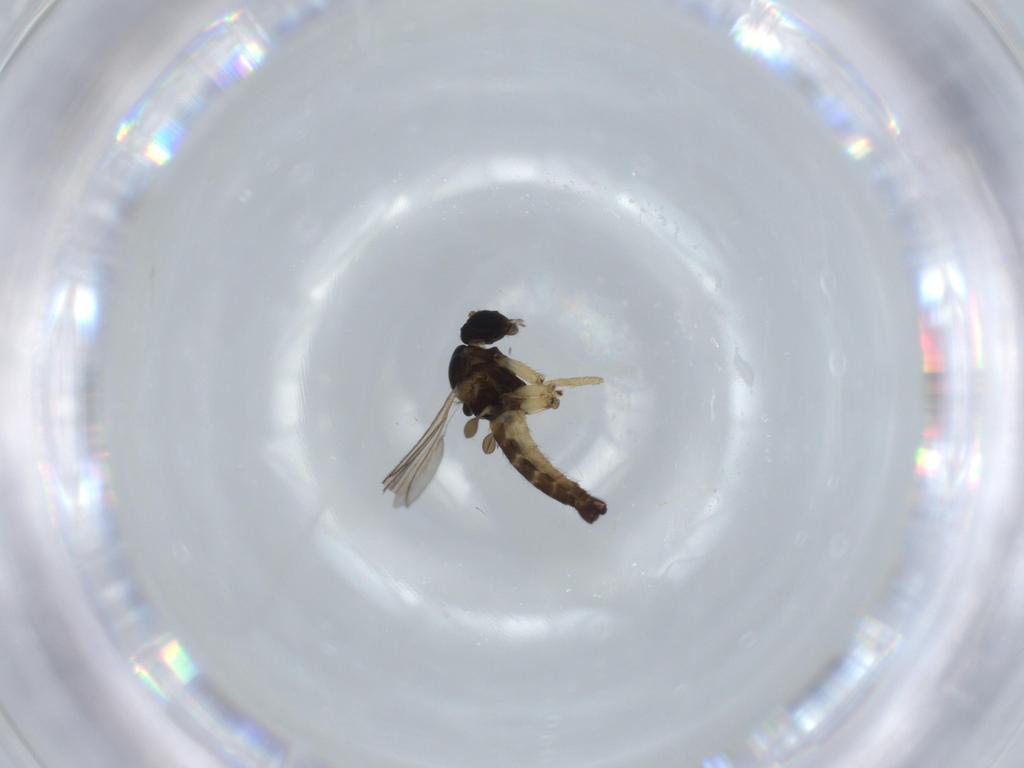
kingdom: Animalia
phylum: Arthropoda
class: Insecta
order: Diptera
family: Sciaridae
